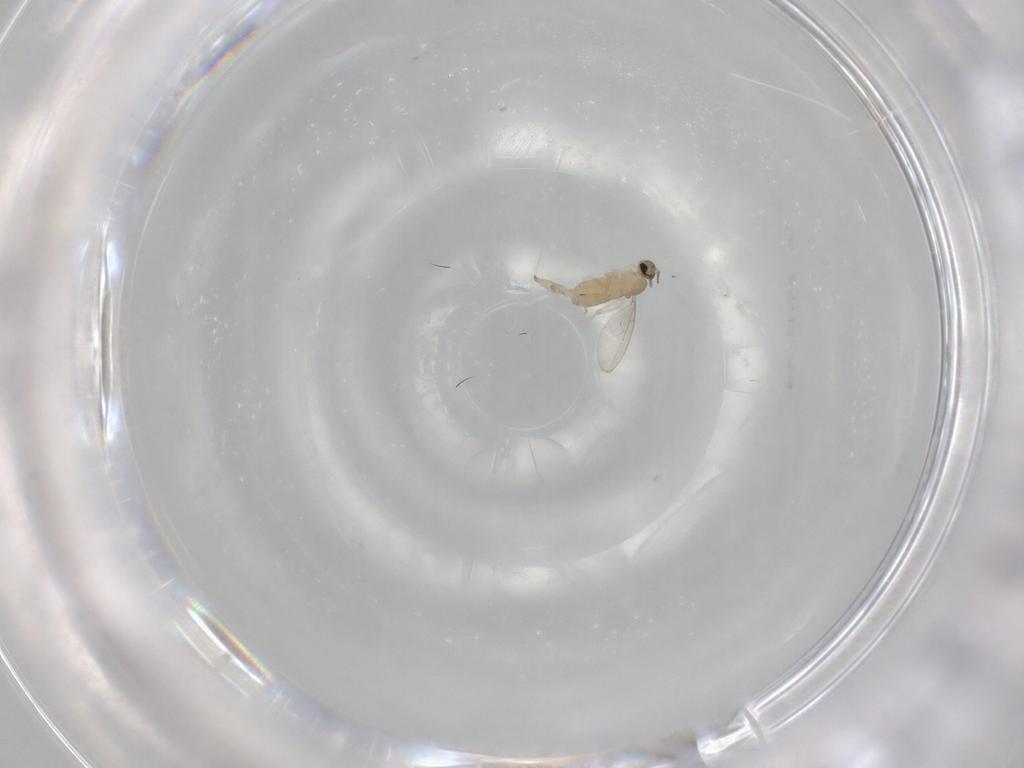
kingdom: Animalia
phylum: Arthropoda
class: Insecta
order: Diptera
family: Cecidomyiidae
